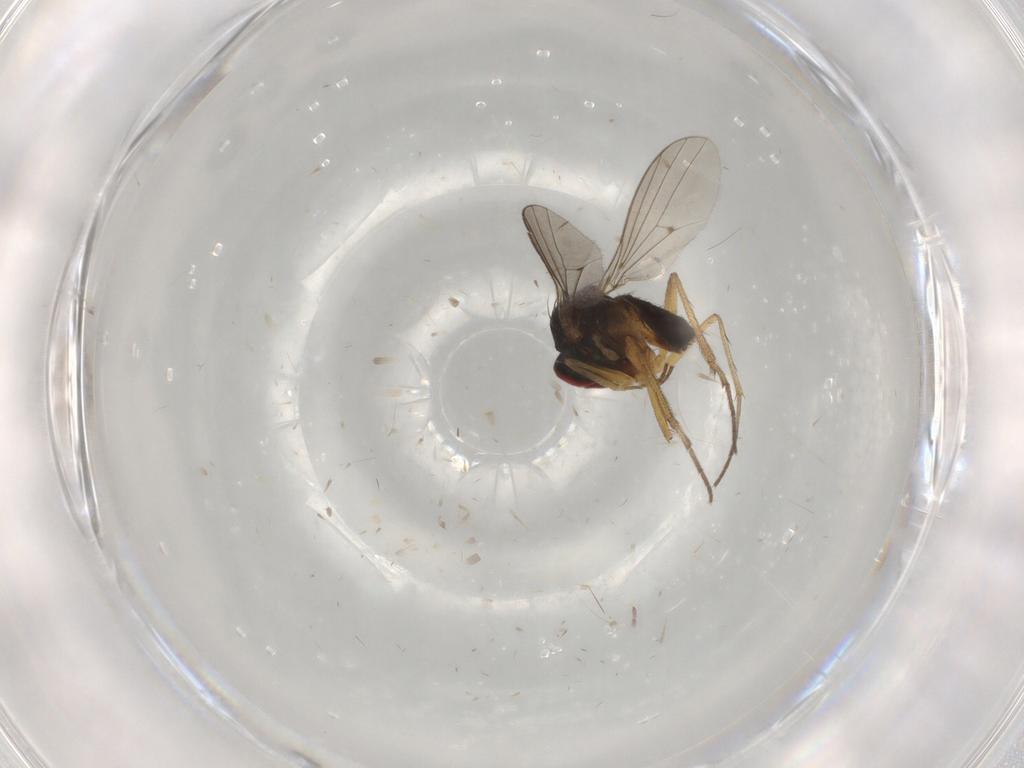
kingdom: Animalia
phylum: Arthropoda
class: Insecta
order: Diptera
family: Dolichopodidae
